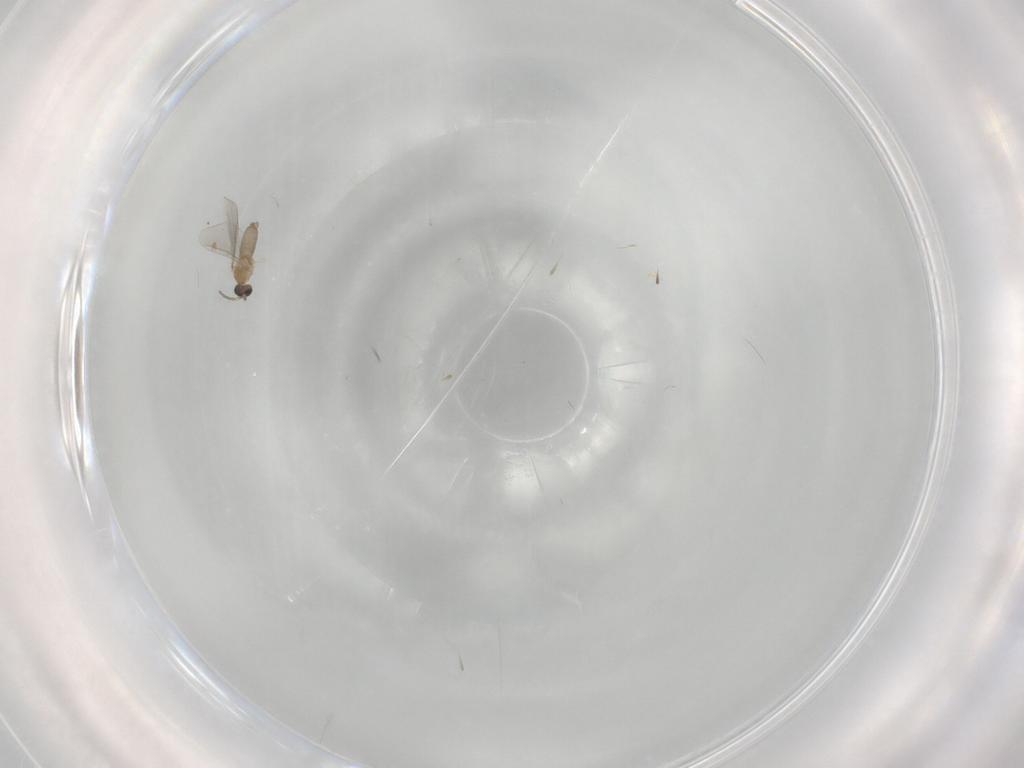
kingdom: Animalia
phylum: Arthropoda
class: Insecta
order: Diptera
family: Cecidomyiidae
